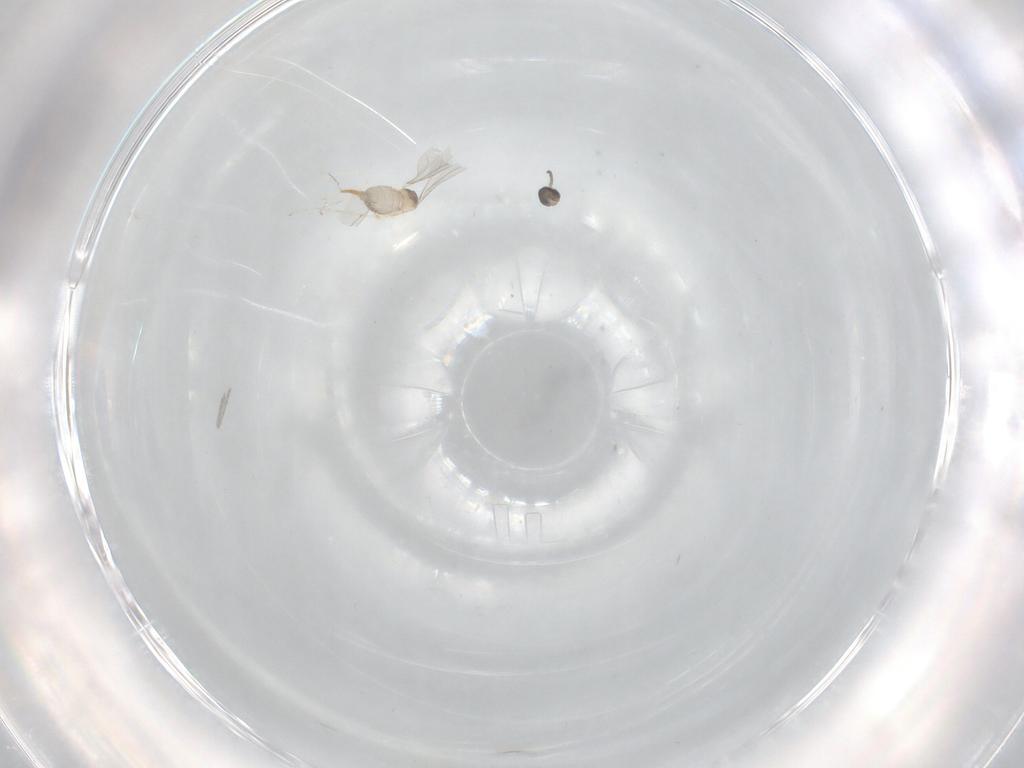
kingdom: Animalia
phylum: Arthropoda
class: Insecta
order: Diptera
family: Cecidomyiidae
